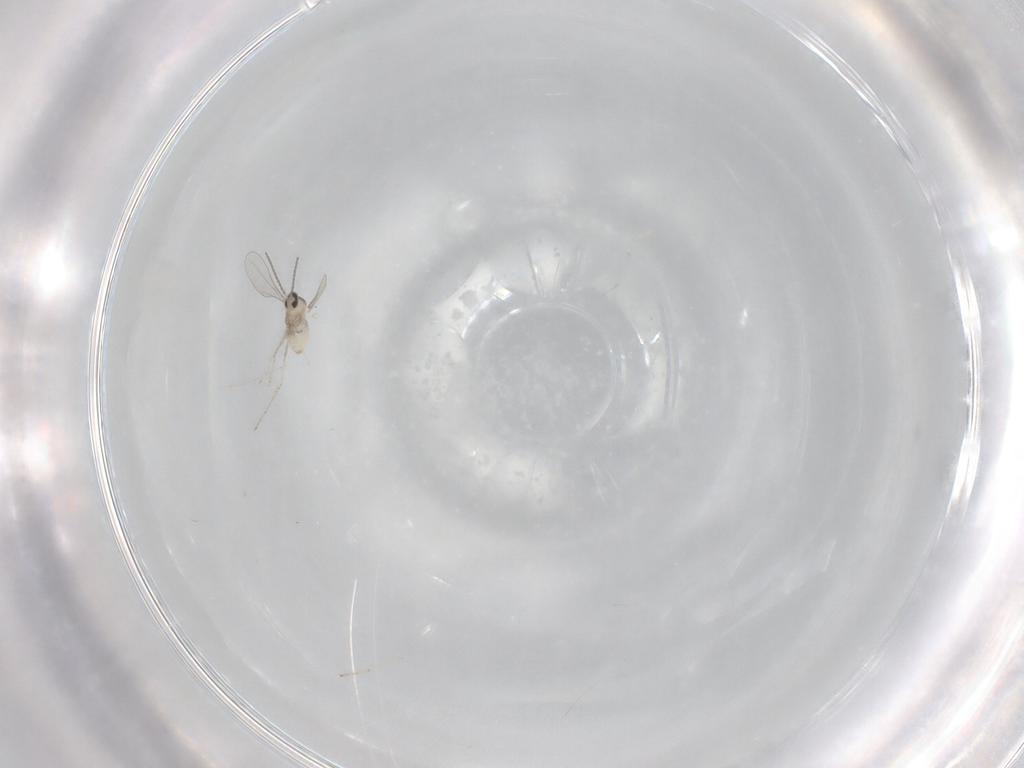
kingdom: Animalia
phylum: Arthropoda
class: Insecta
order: Diptera
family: Cecidomyiidae
